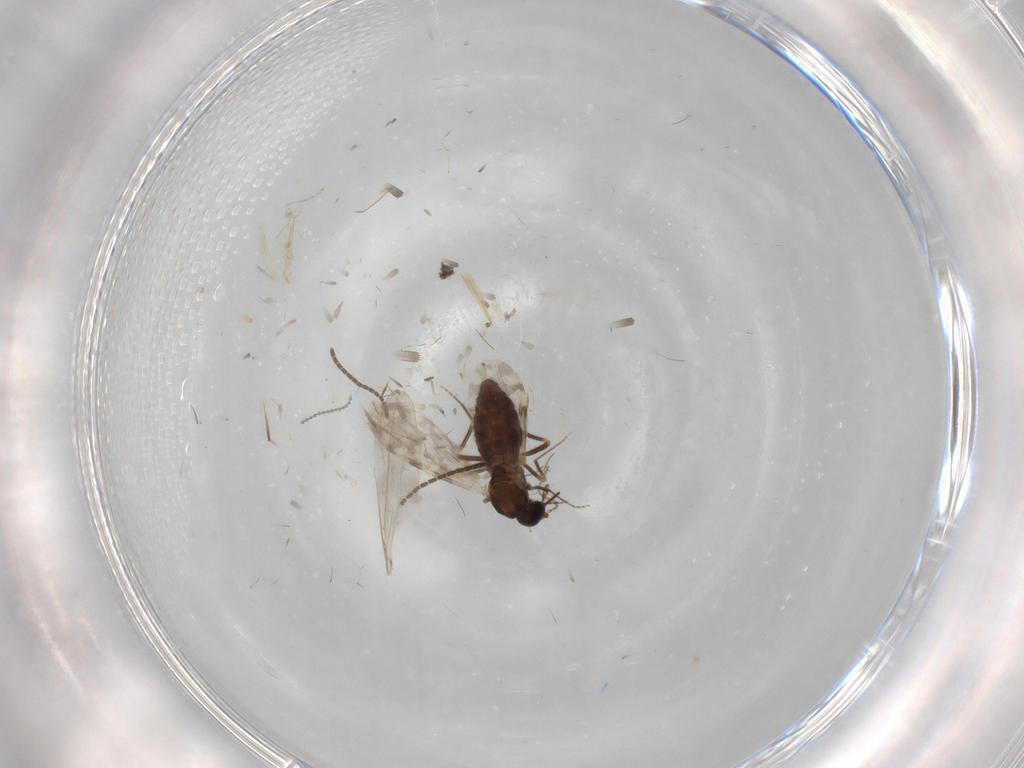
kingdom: Animalia
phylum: Arthropoda
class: Insecta
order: Diptera
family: Ceratopogonidae
